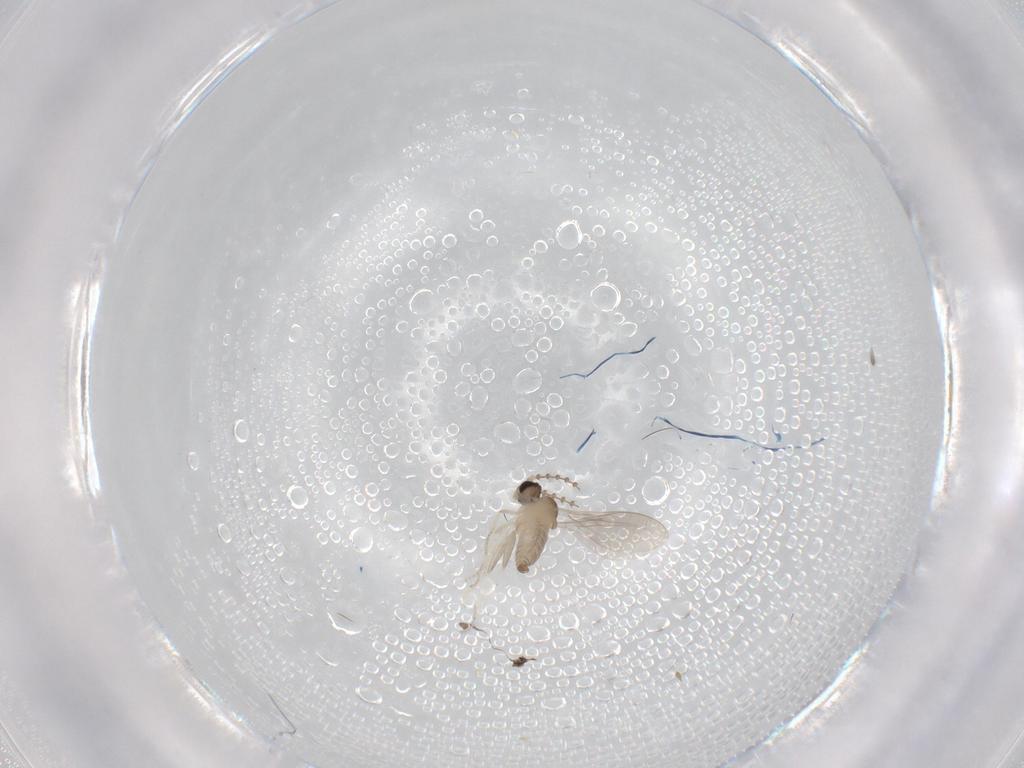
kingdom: Animalia
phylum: Arthropoda
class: Insecta
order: Diptera
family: Cecidomyiidae
